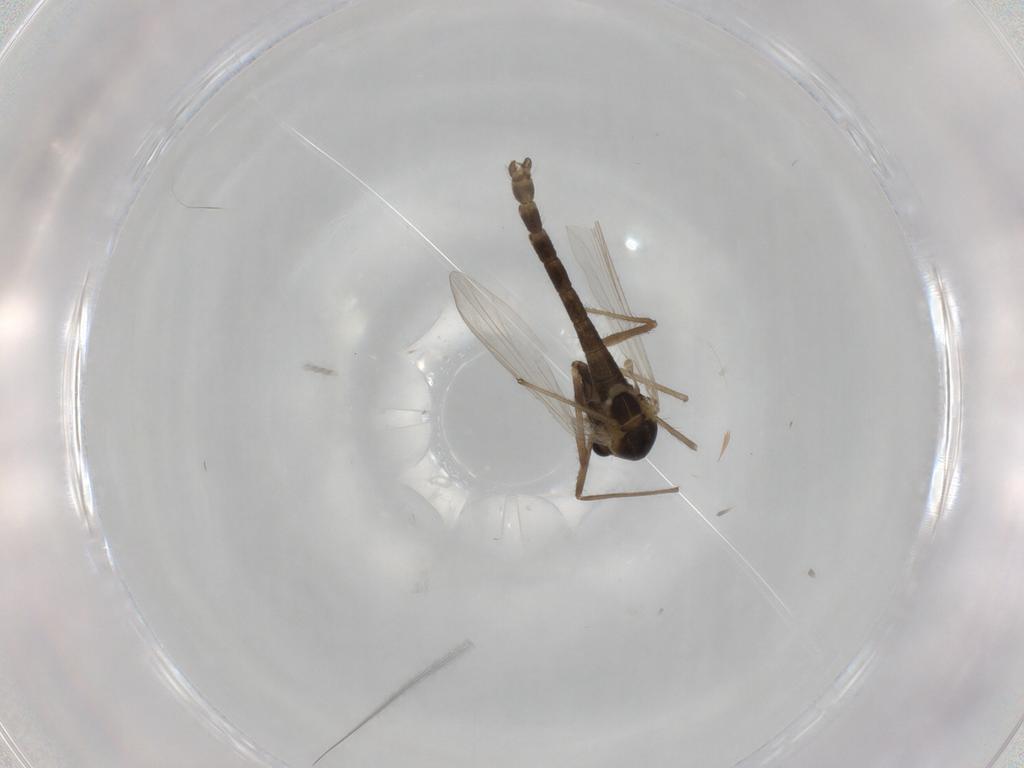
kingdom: Animalia
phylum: Arthropoda
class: Insecta
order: Diptera
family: Chironomidae
